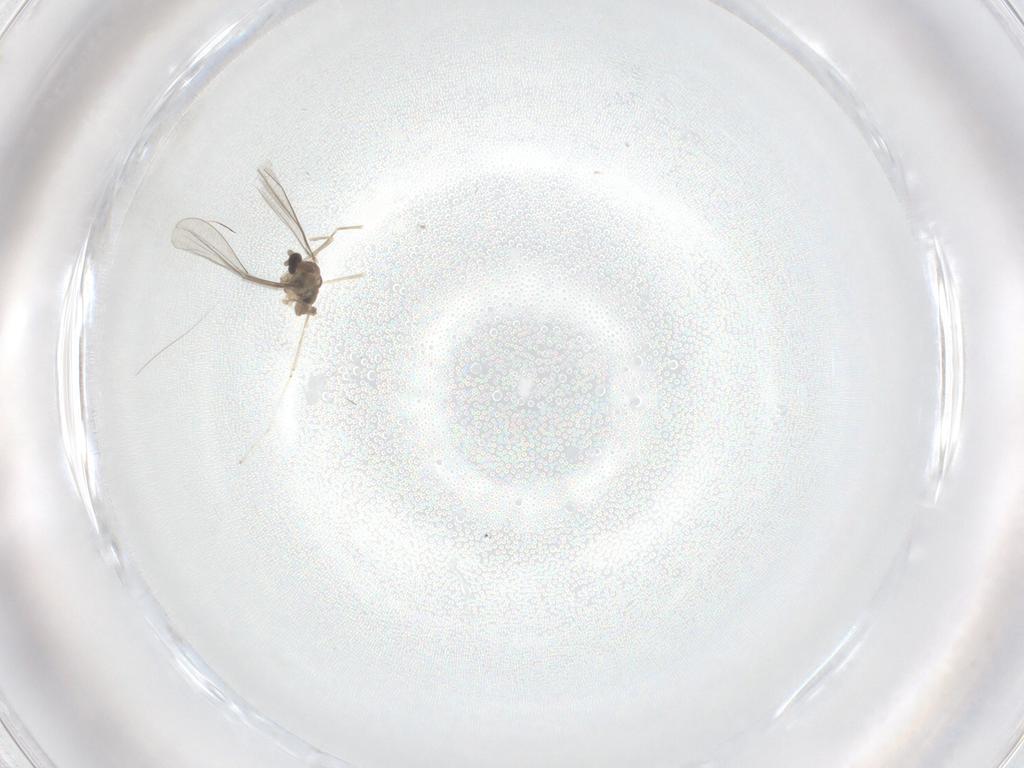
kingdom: Animalia
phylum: Arthropoda
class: Insecta
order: Diptera
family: Cecidomyiidae
